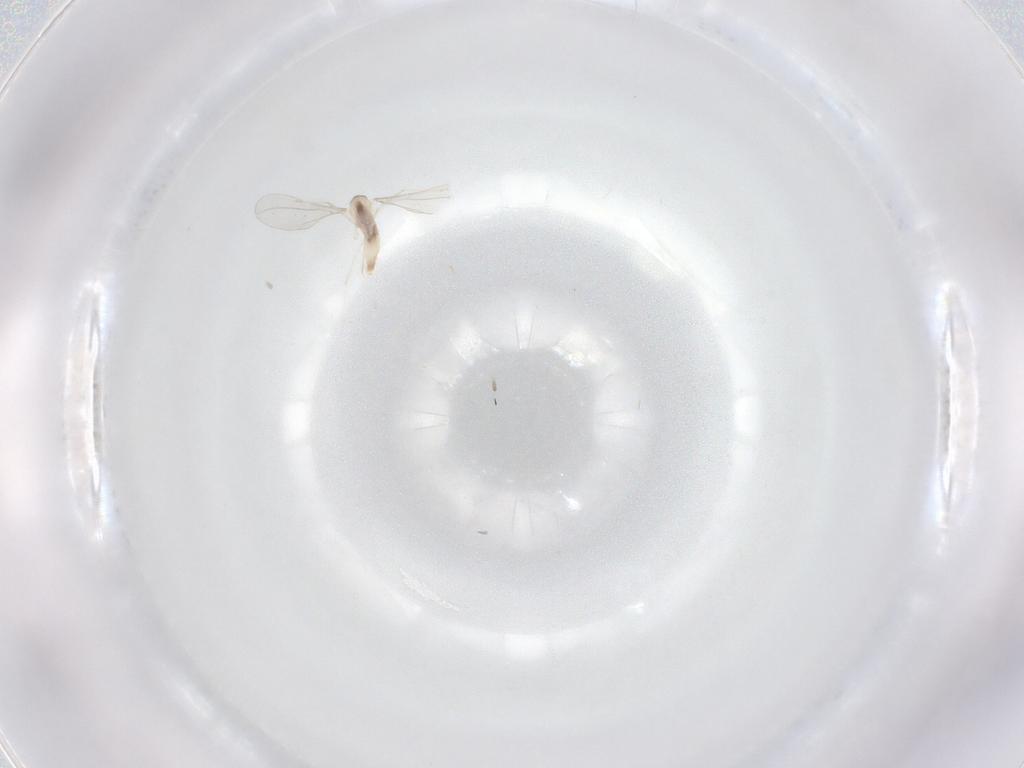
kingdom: Animalia
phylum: Arthropoda
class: Insecta
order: Diptera
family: Cecidomyiidae
